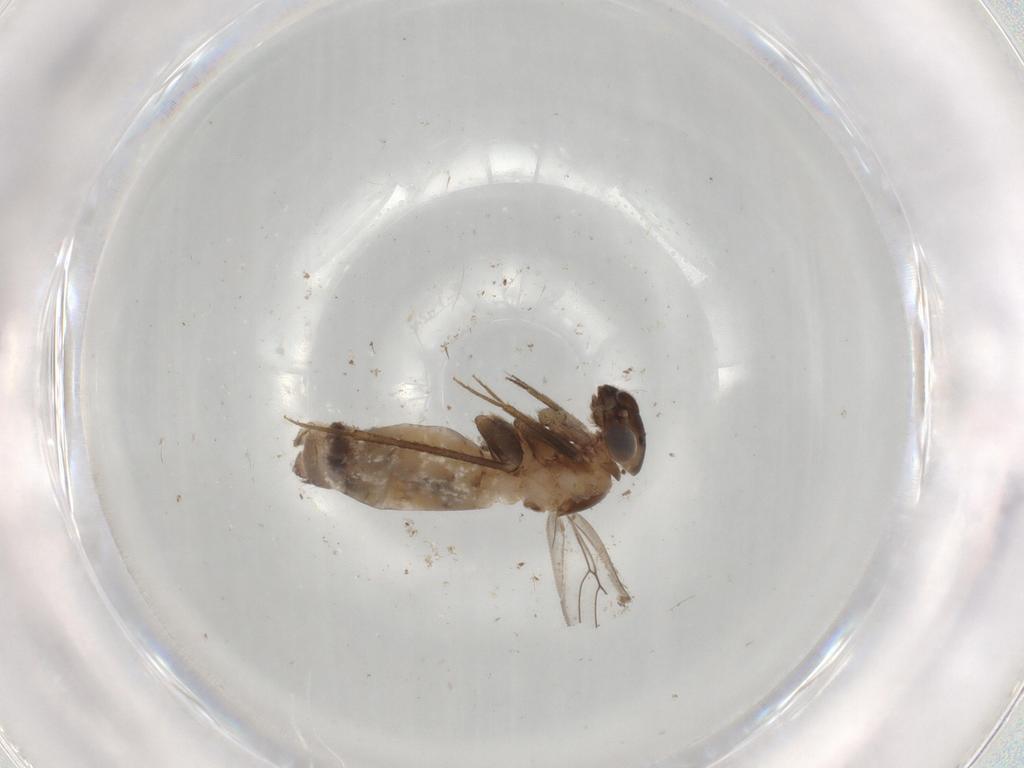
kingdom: Animalia
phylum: Arthropoda
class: Insecta
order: Psocodea
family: Lepidopsocidae
